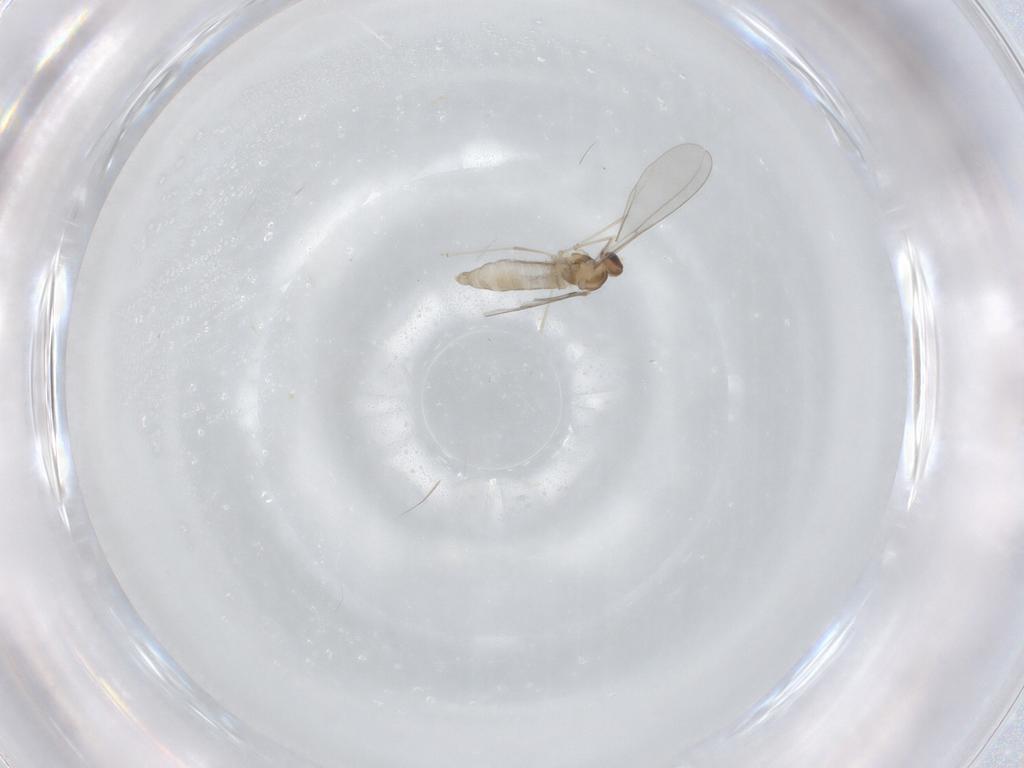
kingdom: Animalia
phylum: Arthropoda
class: Insecta
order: Diptera
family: Cecidomyiidae
